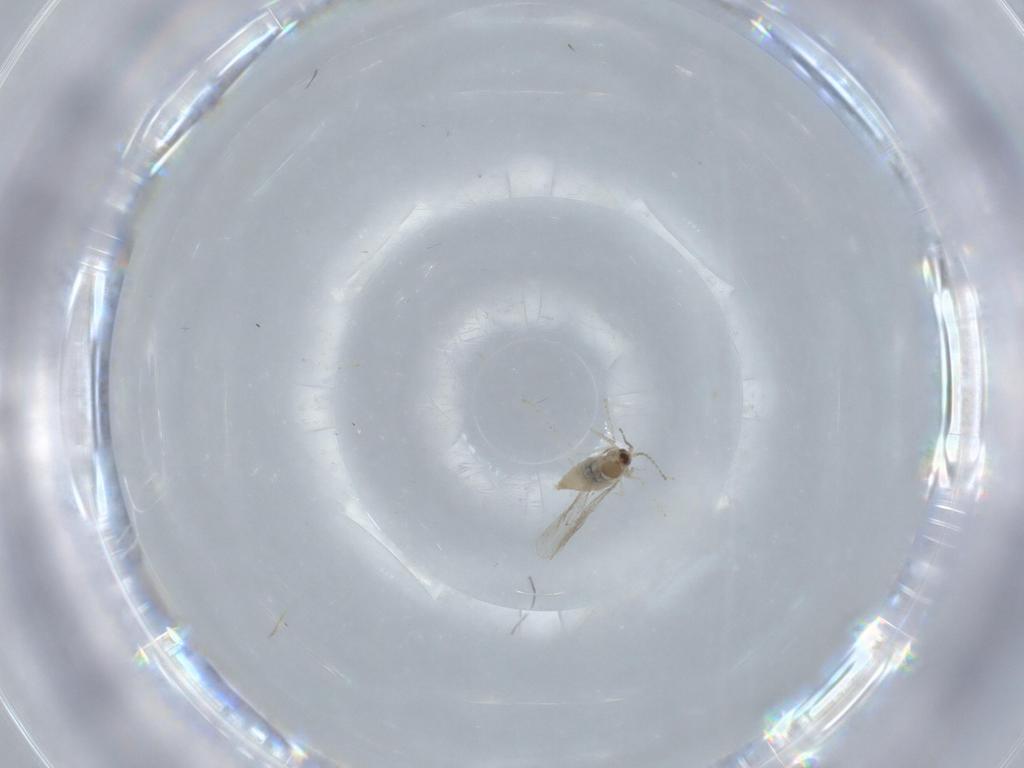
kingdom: Animalia
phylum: Arthropoda
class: Insecta
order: Diptera
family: Cecidomyiidae
